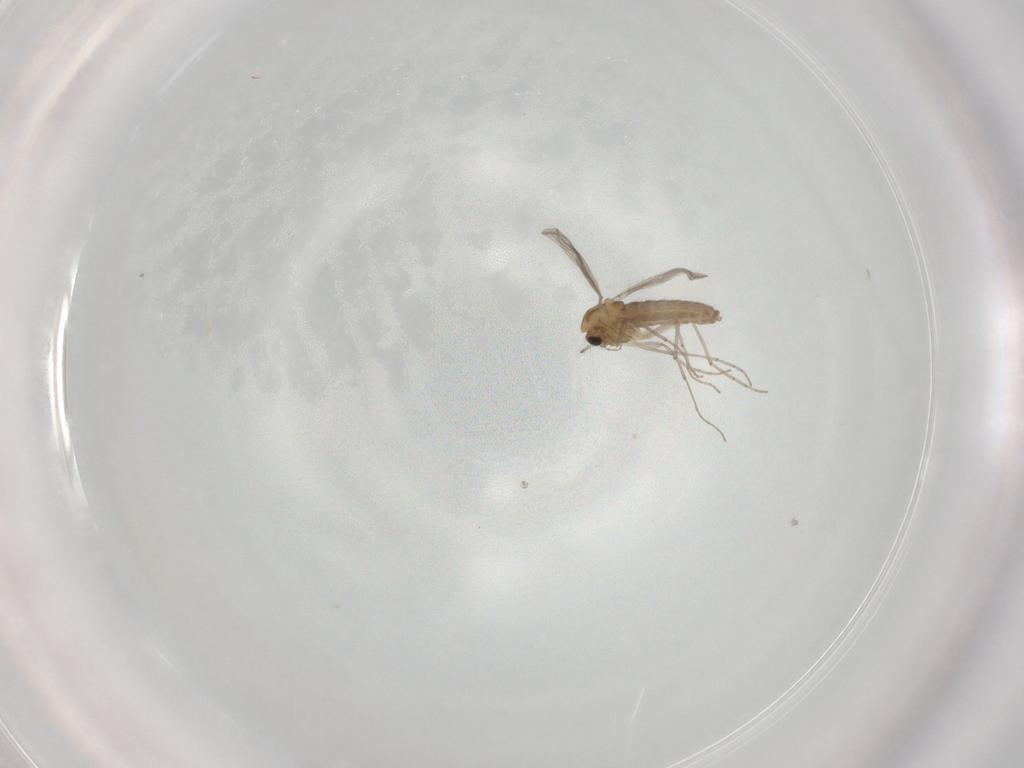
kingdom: Animalia
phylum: Arthropoda
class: Insecta
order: Diptera
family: Chironomidae
